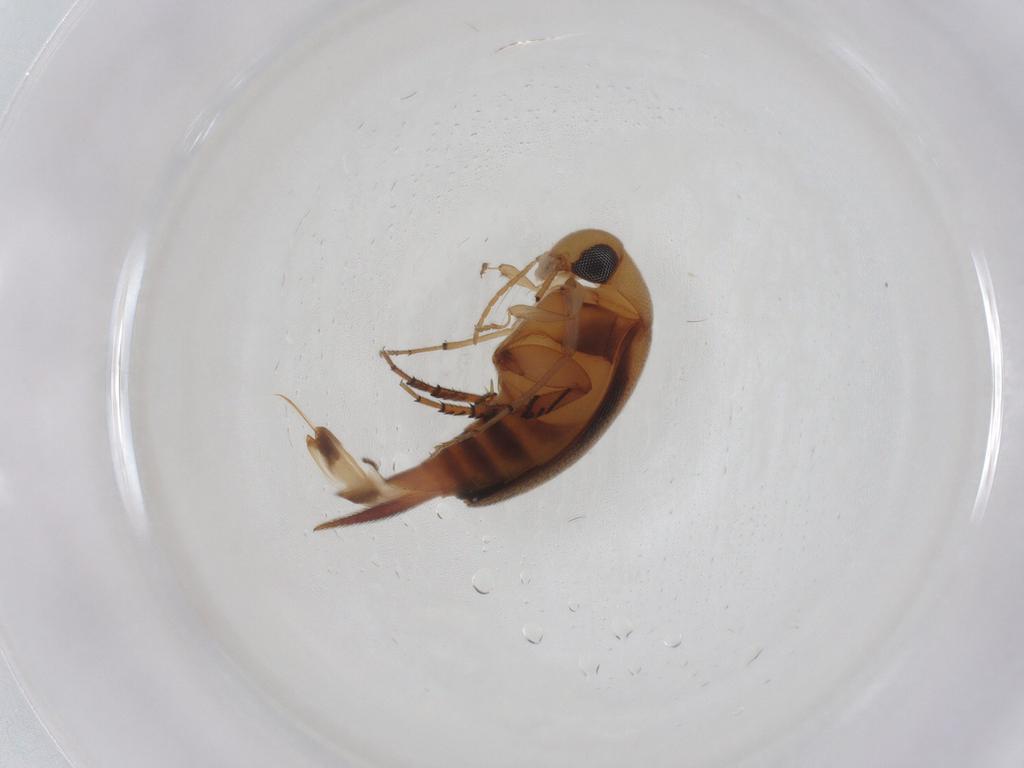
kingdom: Animalia
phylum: Arthropoda
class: Insecta
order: Coleoptera
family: Mordellidae
